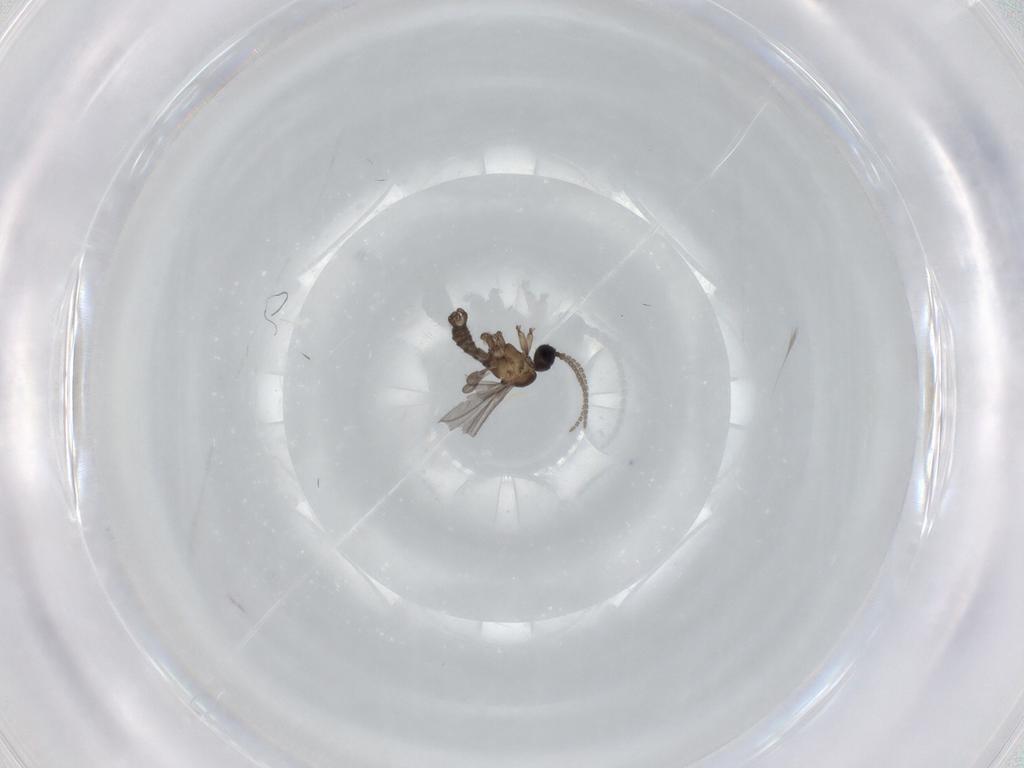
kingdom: Animalia
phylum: Arthropoda
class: Insecta
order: Diptera
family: Sciaridae
